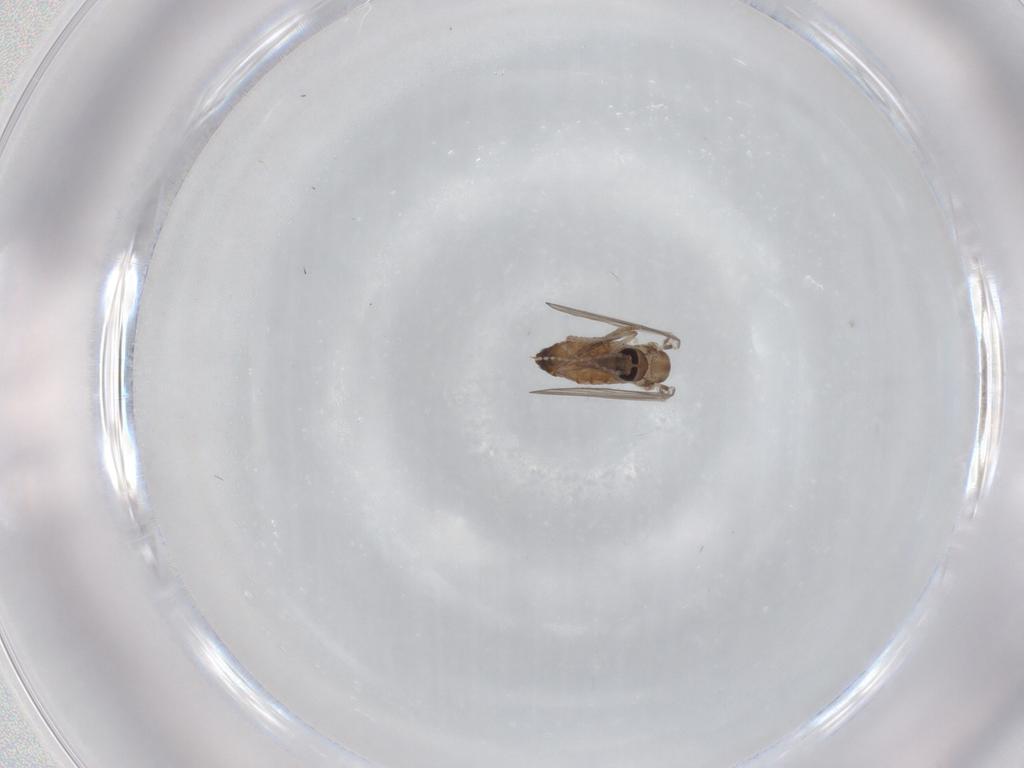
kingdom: Animalia
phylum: Arthropoda
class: Insecta
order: Diptera
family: Psychodidae
